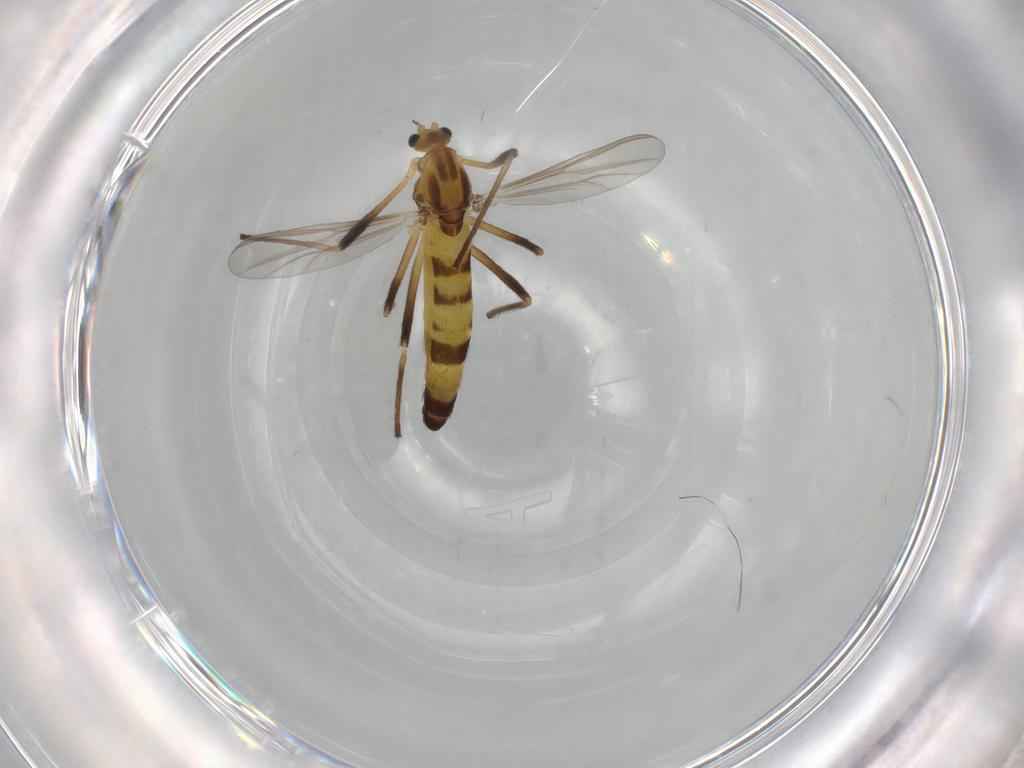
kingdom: Animalia
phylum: Arthropoda
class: Insecta
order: Diptera
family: Chironomidae
